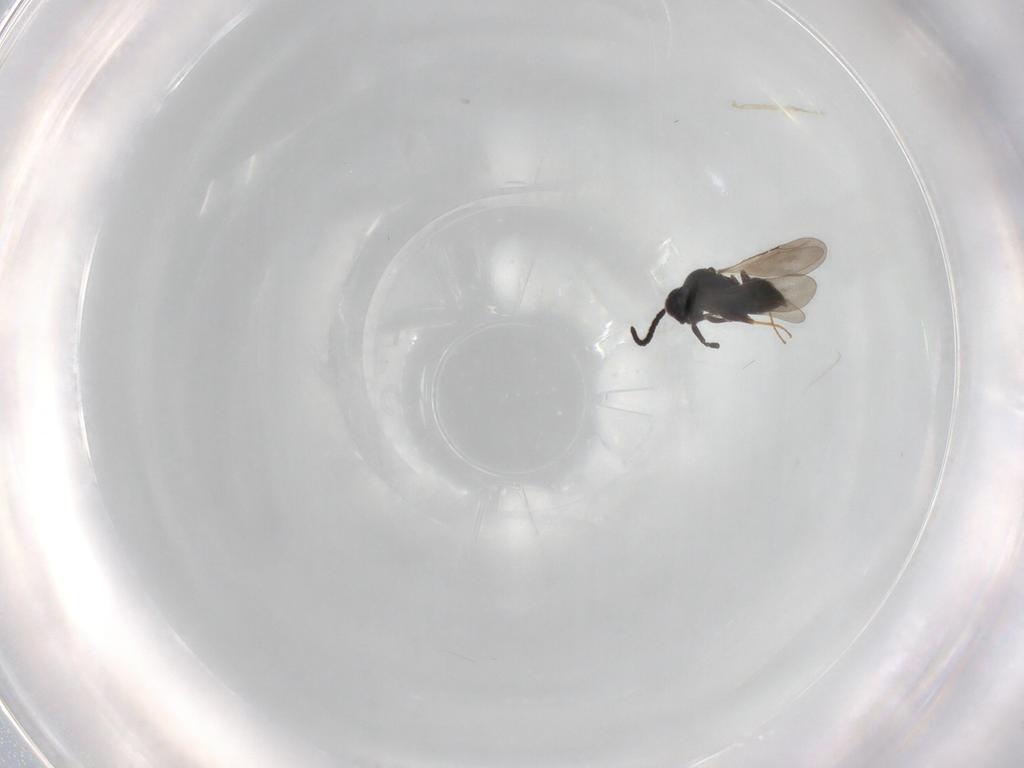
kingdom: Animalia
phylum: Arthropoda
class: Insecta
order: Hymenoptera
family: Ceraphronidae
